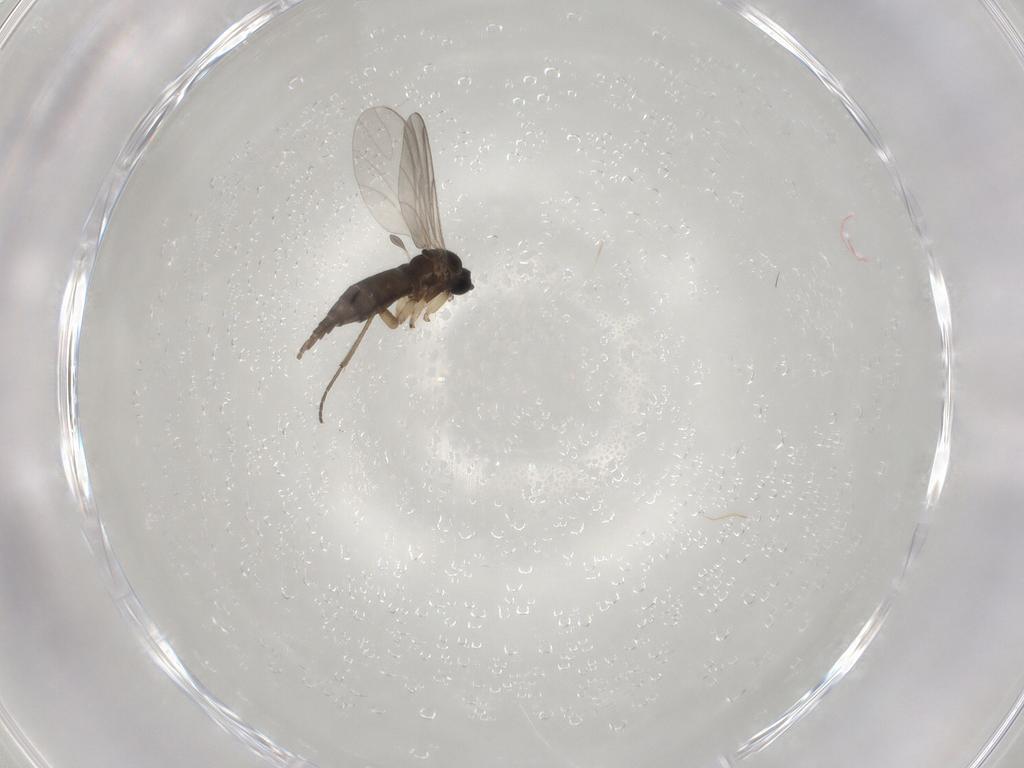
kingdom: Animalia
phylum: Arthropoda
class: Insecta
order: Diptera
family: Sciaridae
